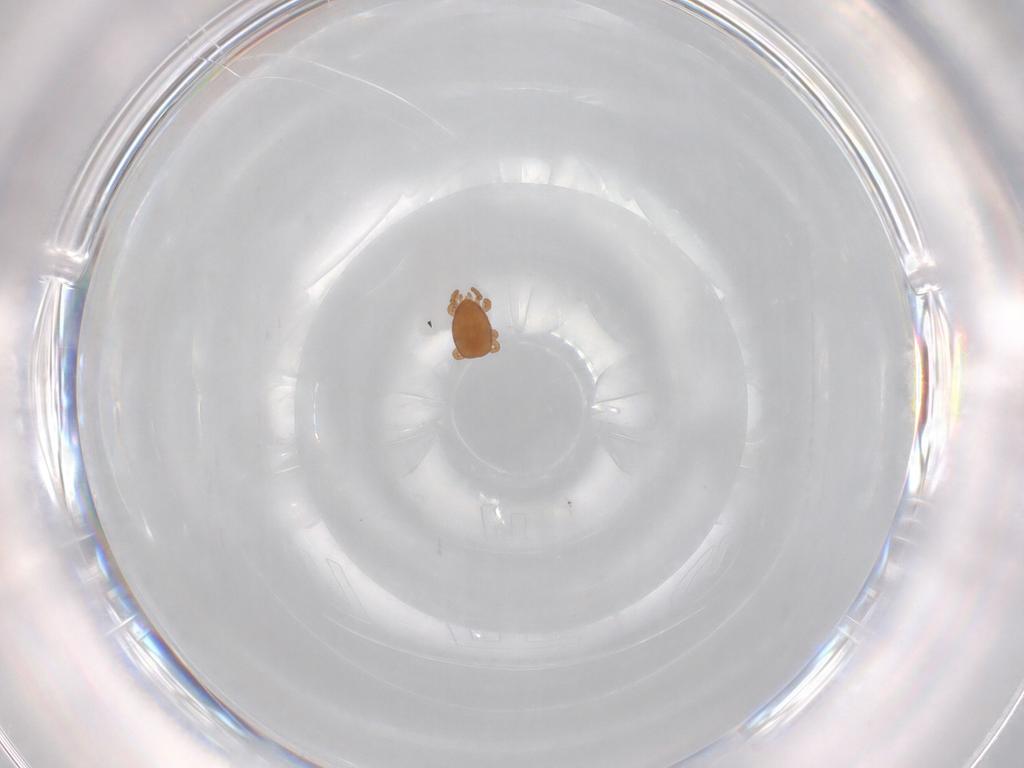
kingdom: Animalia
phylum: Arthropoda
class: Arachnida
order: Mesostigmata
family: Eviphididae
